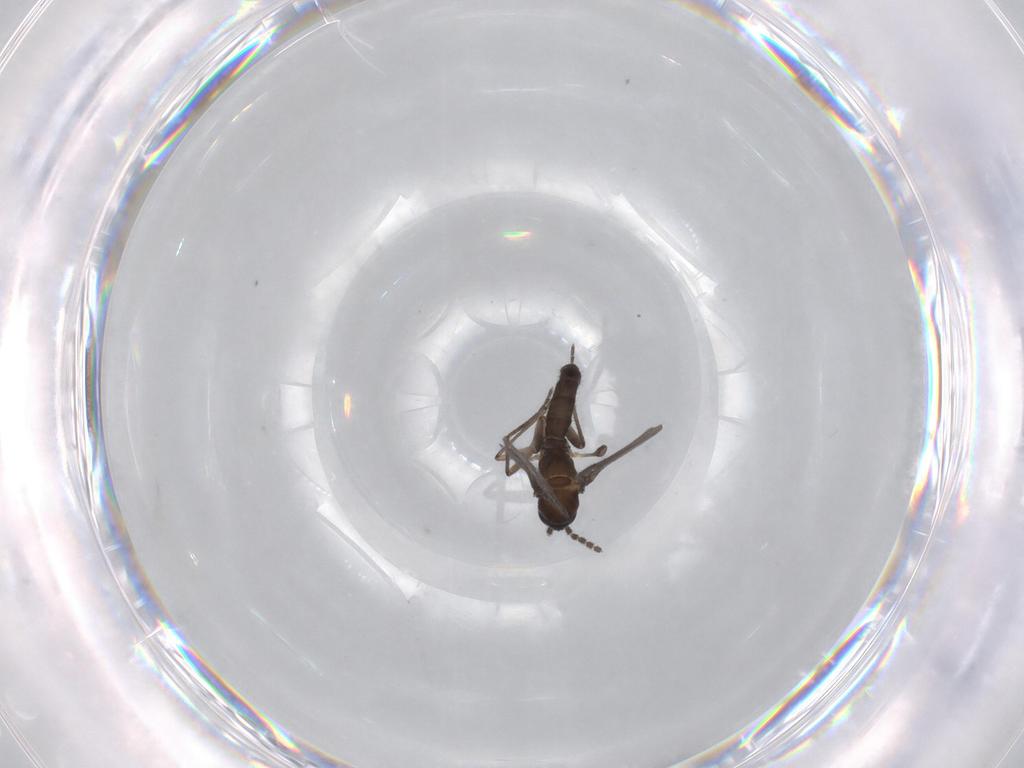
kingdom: Animalia
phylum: Arthropoda
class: Insecta
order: Diptera
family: Sciaridae
